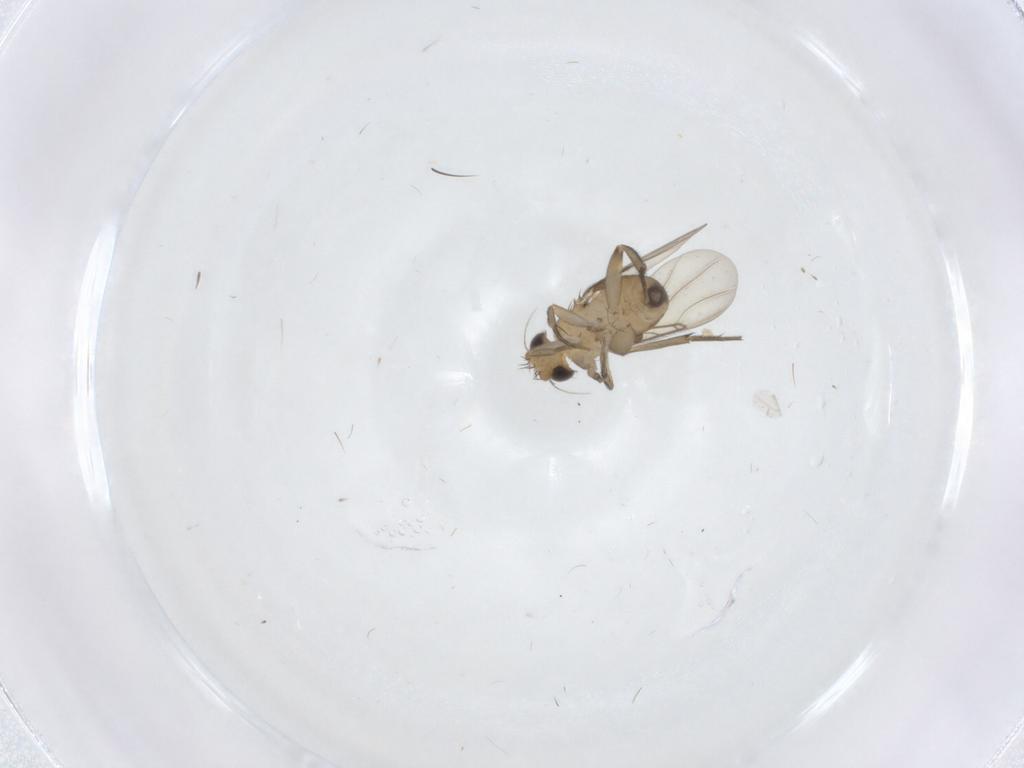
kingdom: Animalia
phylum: Arthropoda
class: Insecta
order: Diptera
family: Phoridae
